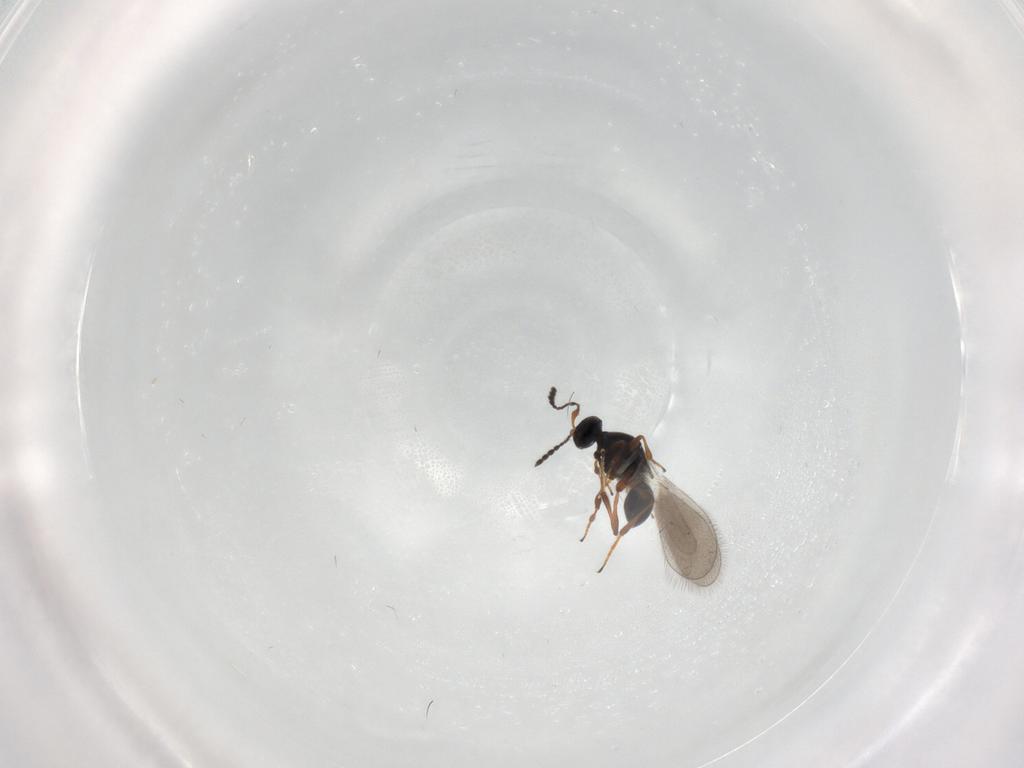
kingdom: Animalia
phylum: Arthropoda
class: Insecta
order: Hymenoptera
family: Platygastridae
